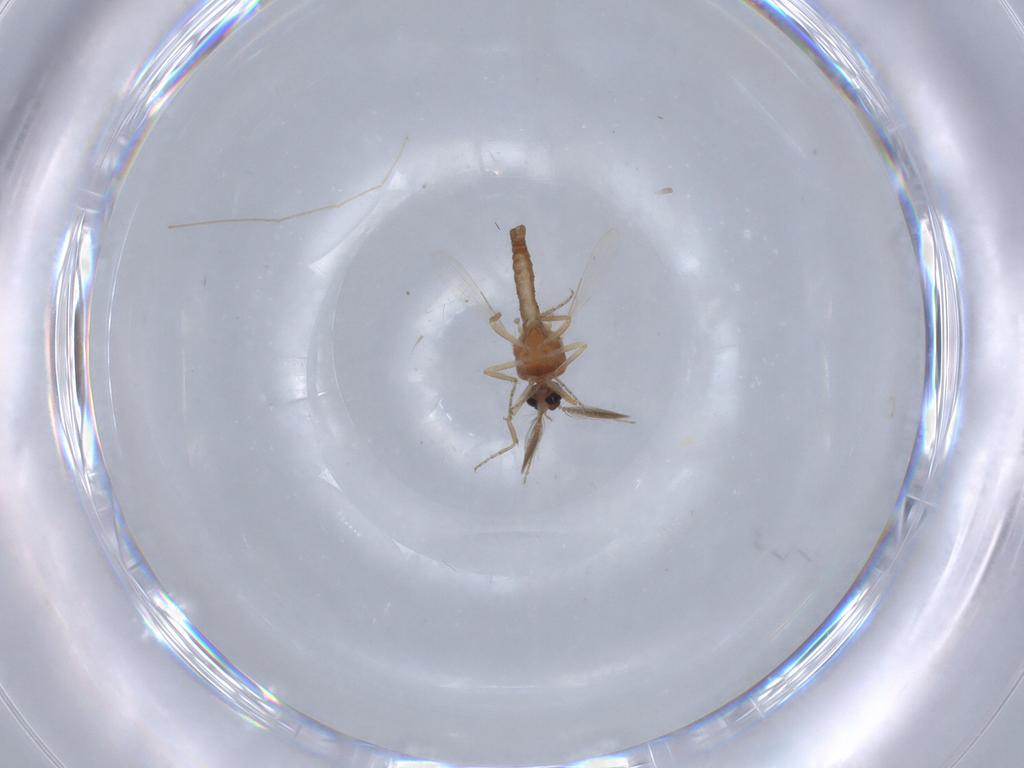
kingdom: Animalia
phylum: Arthropoda
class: Insecta
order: Diptera
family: Ceratopogonidae
